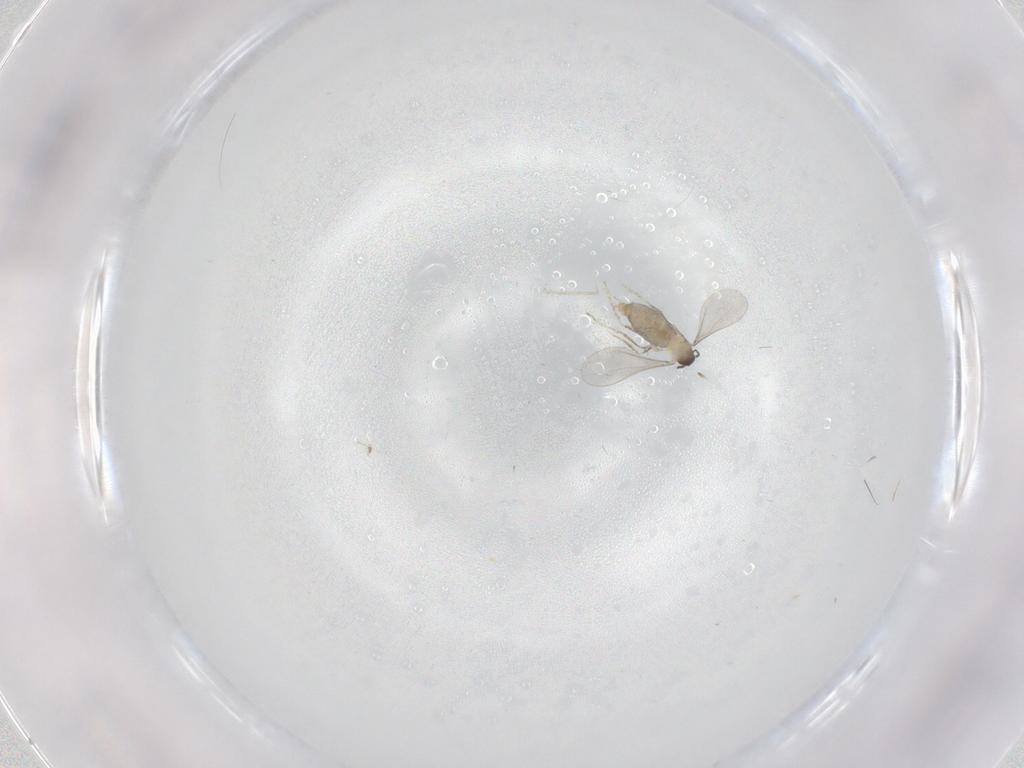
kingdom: Animalia
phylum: Arthropoda
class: Insecta
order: Diptera
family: Cecidomyiidae
